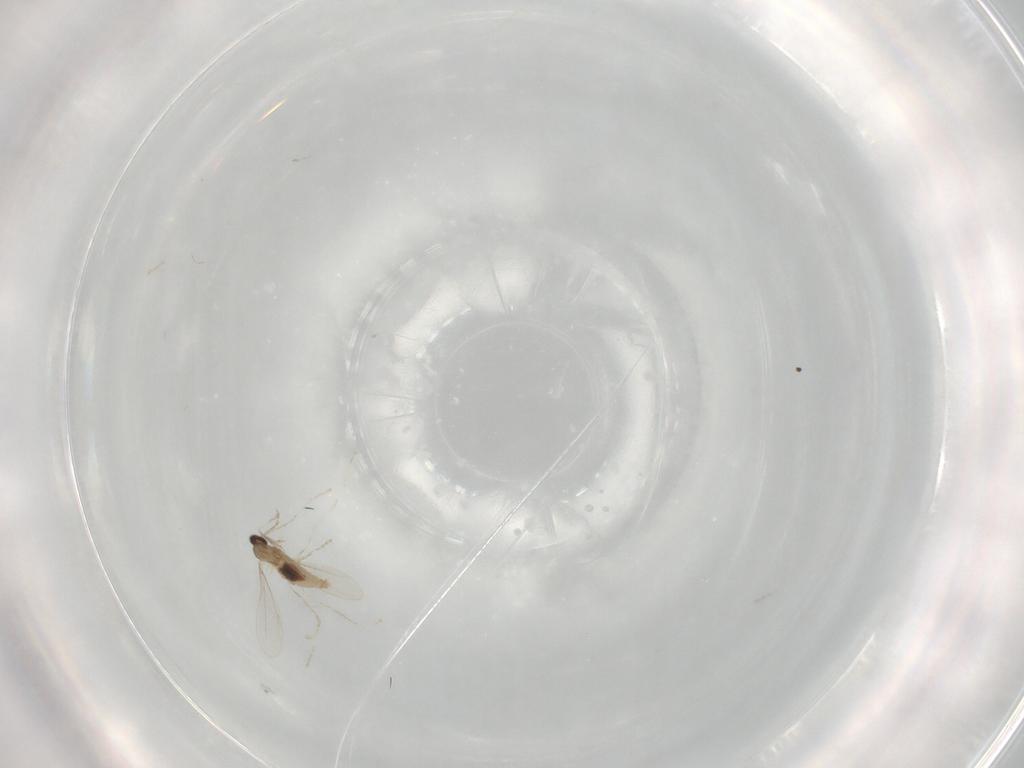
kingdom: Animalia
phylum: Arthropoda
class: Insecta
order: Diptera
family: Cecidomyiidae
